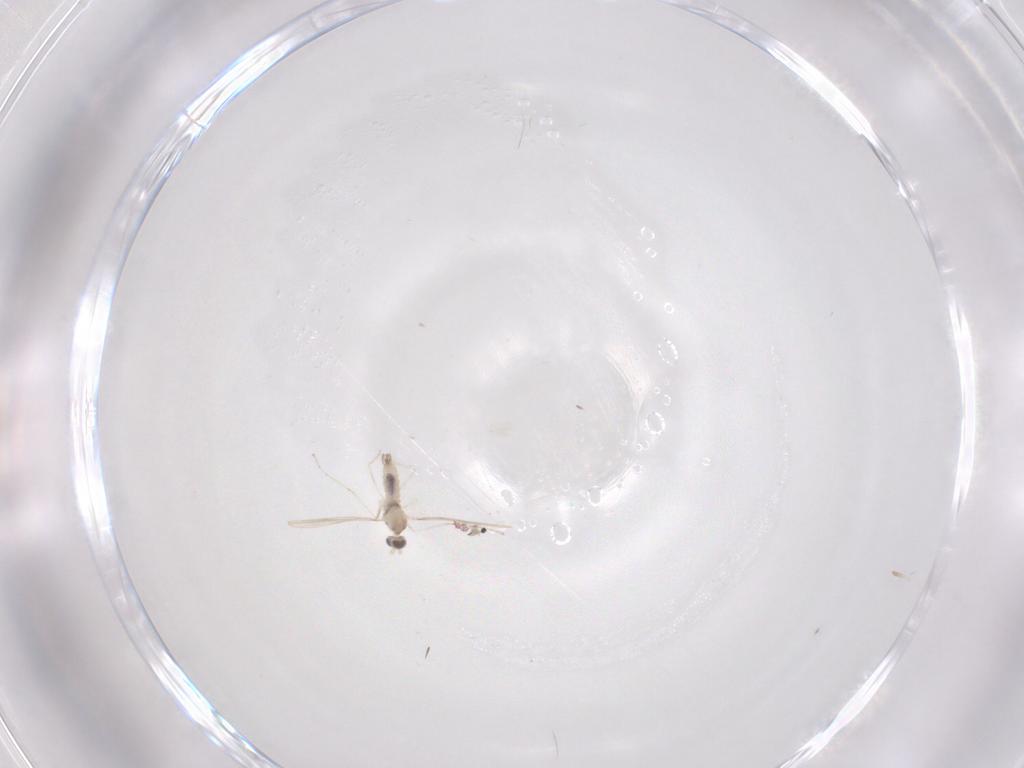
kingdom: Animalia
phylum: Arthropoda
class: Insecta
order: Diptera
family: Cecidomyiidae
